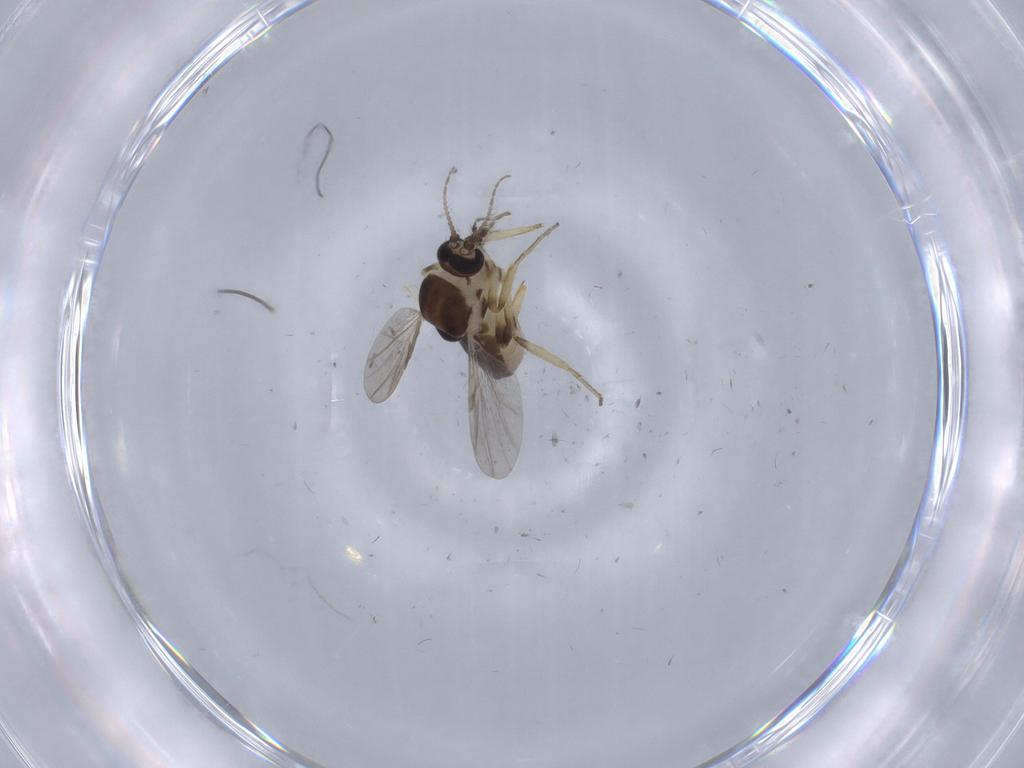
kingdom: Animalia
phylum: Arthropoda
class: Insecta
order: Diptera
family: Ceratopogonidae
